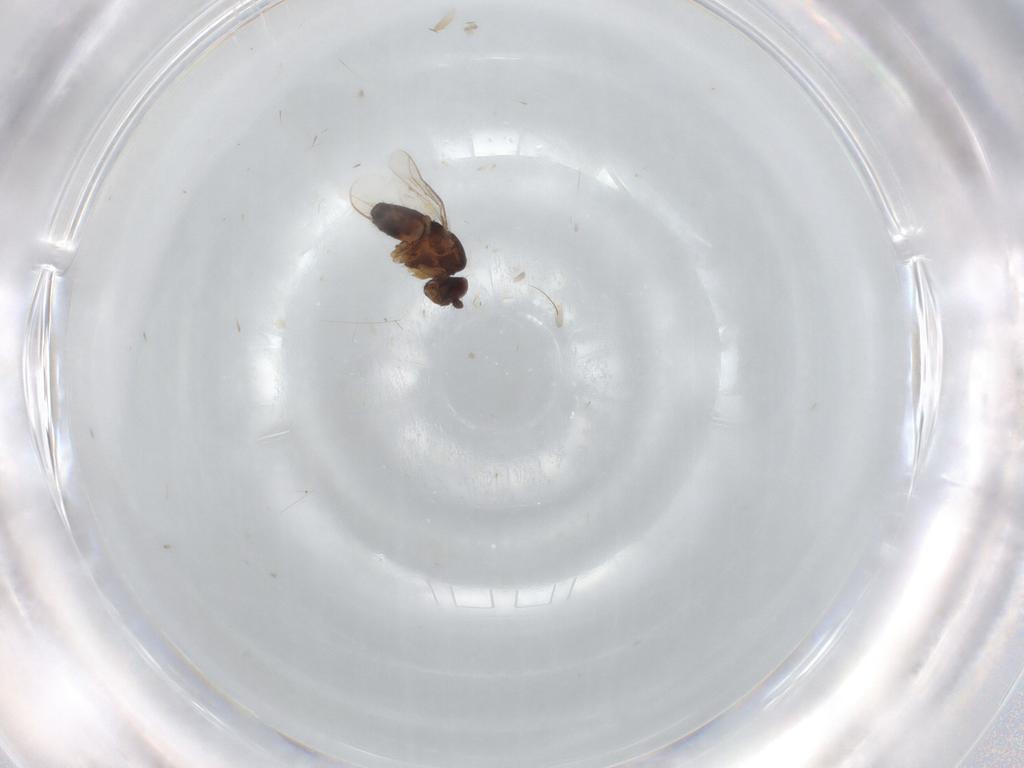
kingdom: Animalia
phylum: Arthropoda
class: Insecta
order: Diptera
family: Sphaeroceridae
